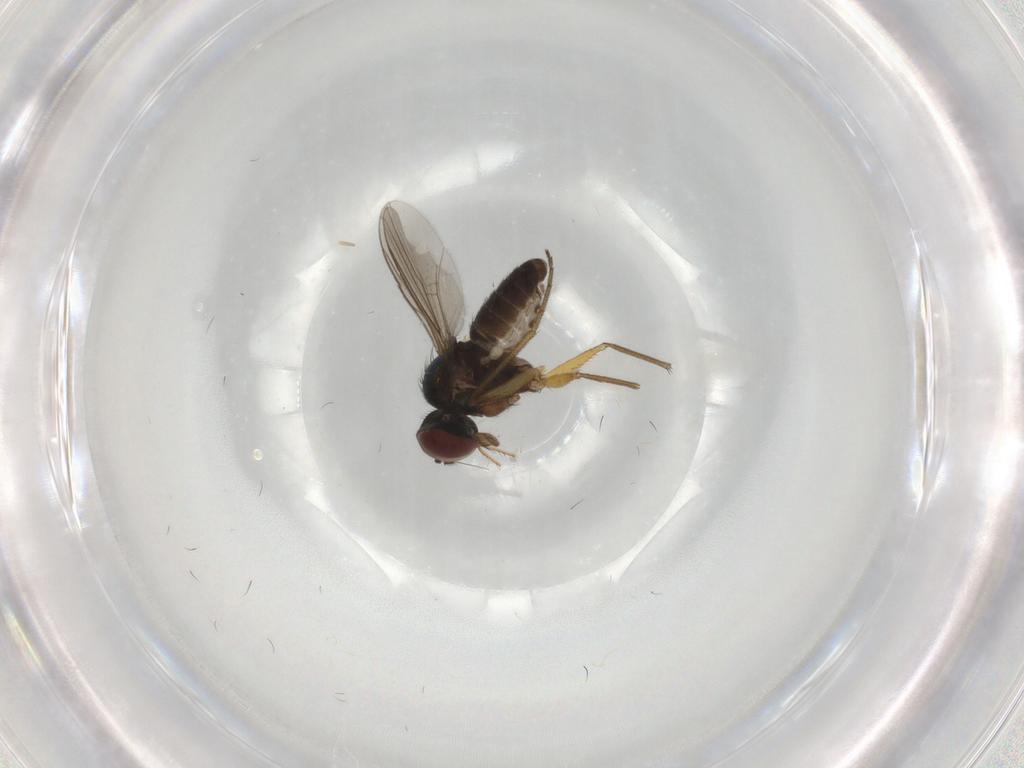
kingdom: Animalia
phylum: Arthropoda
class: Insecta
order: Diptera
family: Dolichopodidae
